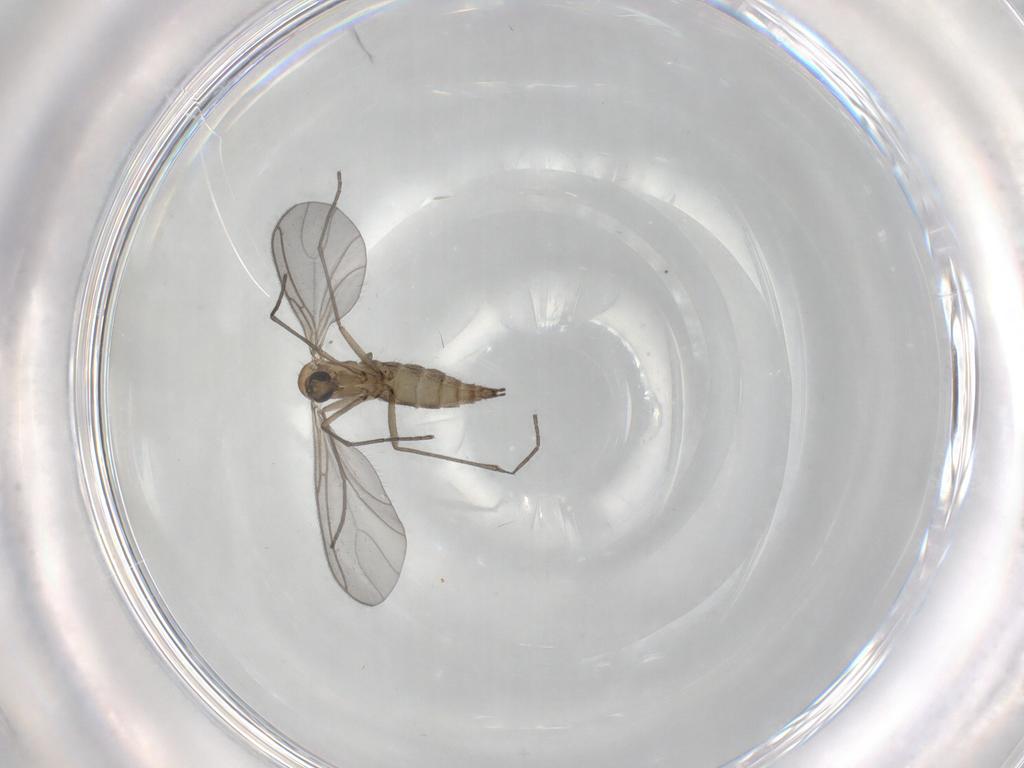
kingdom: Animalia
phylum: Arthropoda
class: Insecta
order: Diptera
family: Sciaridae
